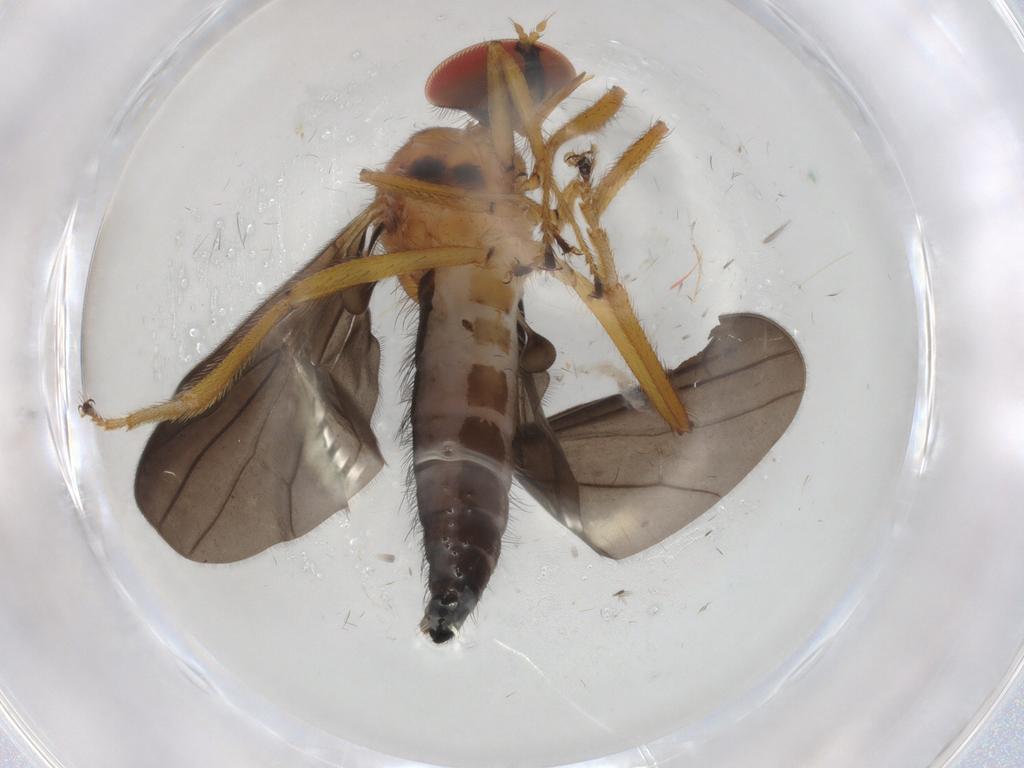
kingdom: Animalia
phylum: Arthropoda
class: Insecta
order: Diptera
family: Hybotidae
